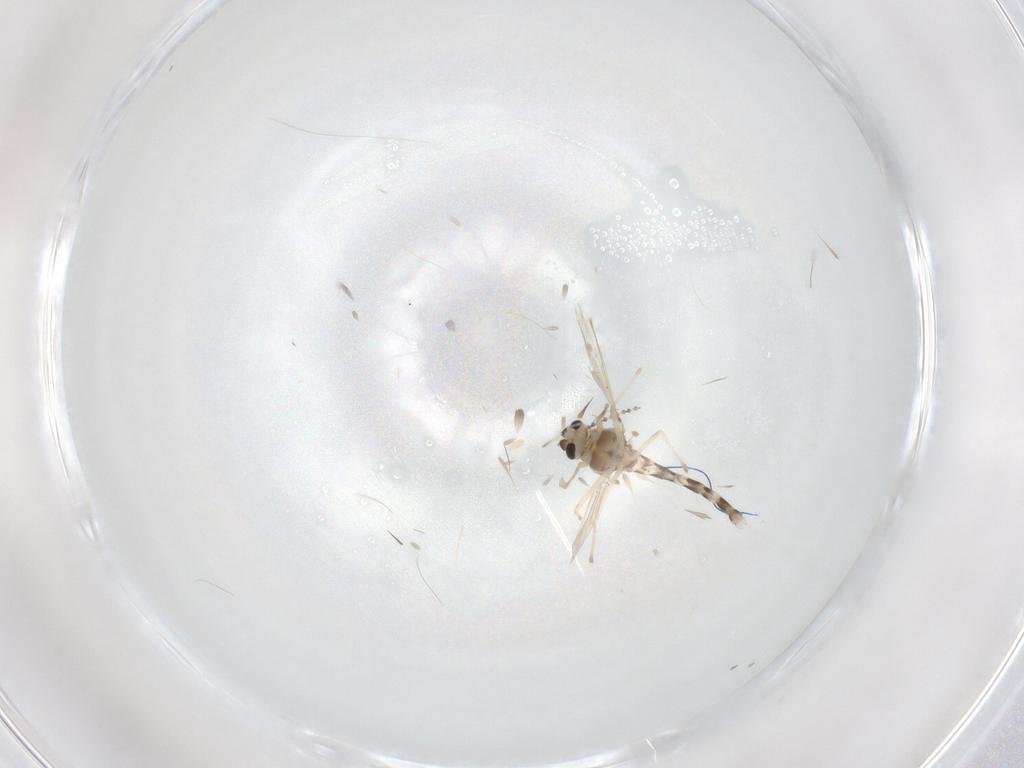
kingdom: Animalia
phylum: Arthropoda
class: Insecta
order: Diptera
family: Cecidomyiidae
